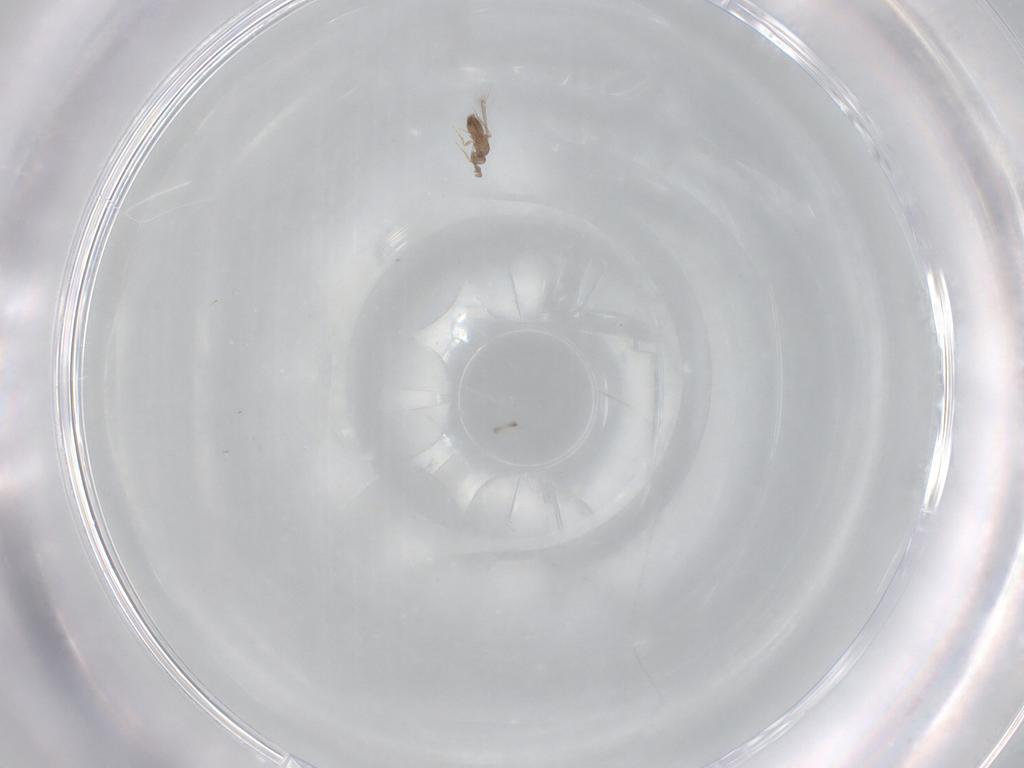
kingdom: Animalia
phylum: Arthropoda
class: Insecta
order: Hymenoptera
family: Mymaridae
